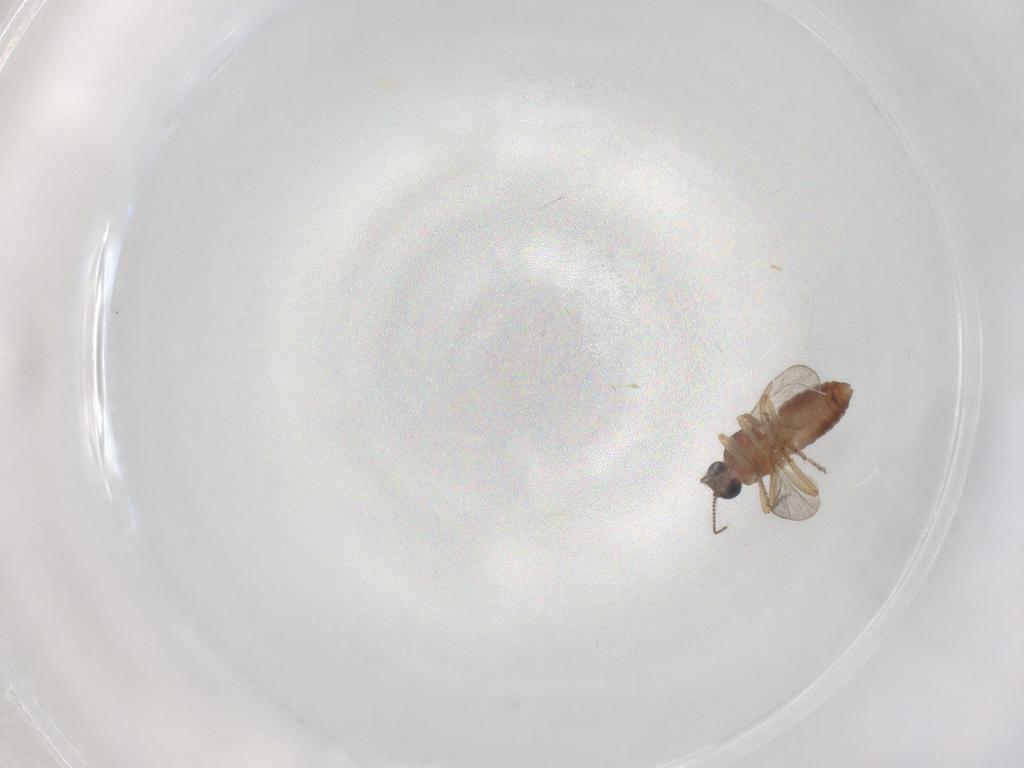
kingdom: Animalia
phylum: Arthropoda
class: Insecta
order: Diptera
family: Ceratopogonidae
